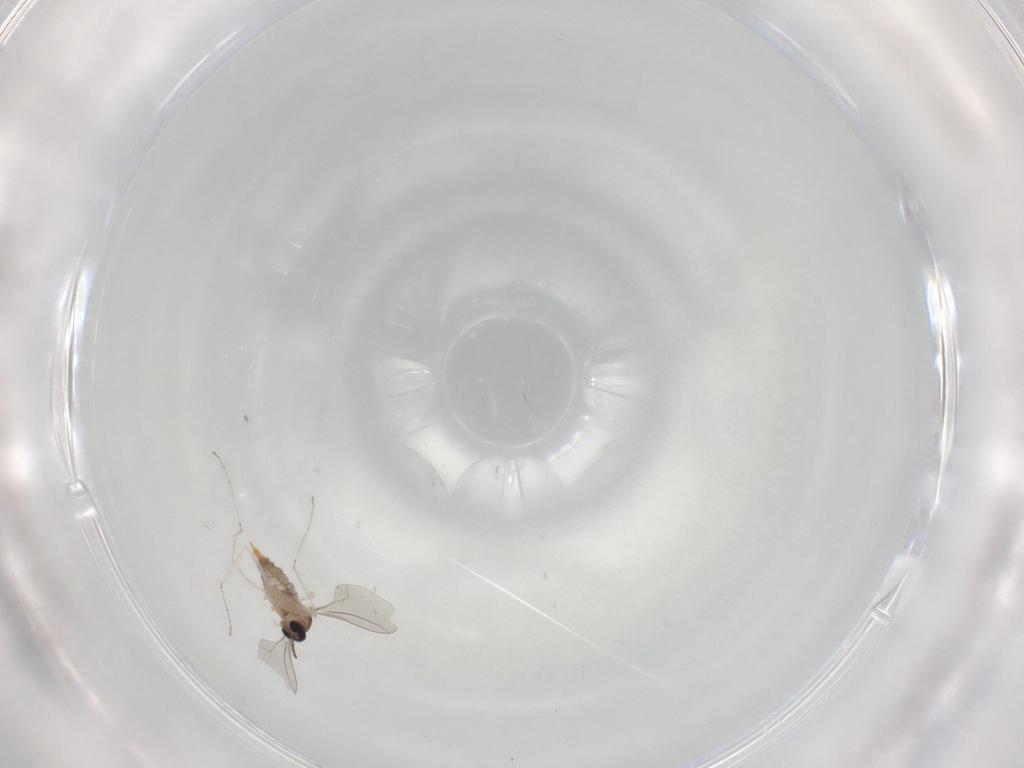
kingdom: Animalia
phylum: Arthropoda
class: Insecta
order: Diptera
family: Cecidomyiidae
